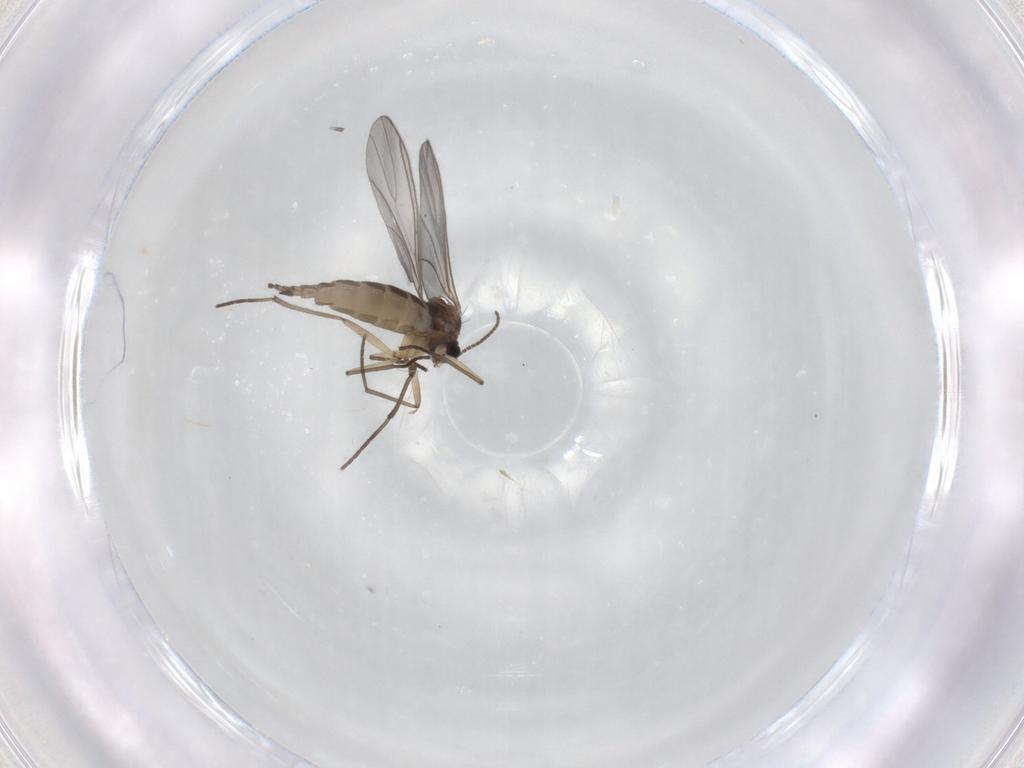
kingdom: Animalia
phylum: Arthropoda
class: Insecta
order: Diptera
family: Sciaridae
